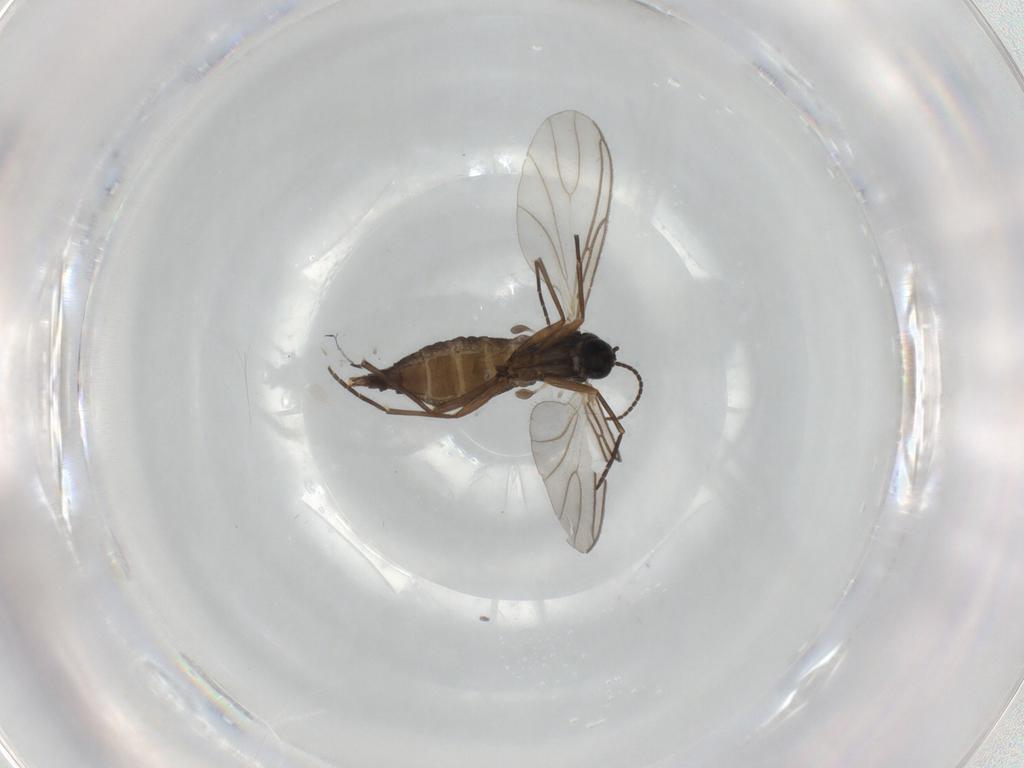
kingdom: Animalia
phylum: Arthropoda
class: Insecta
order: Diptera
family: Sciaridae
